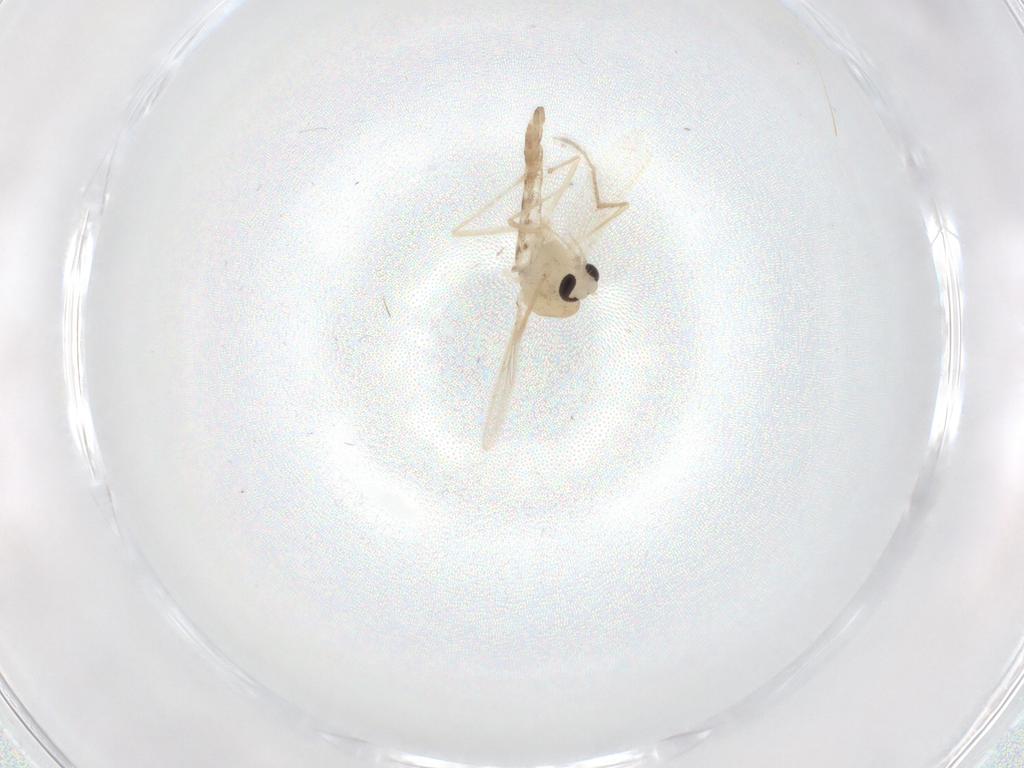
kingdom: Animalia
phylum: Arthropoda
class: Insecta
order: Diptera
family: Chironomidae
